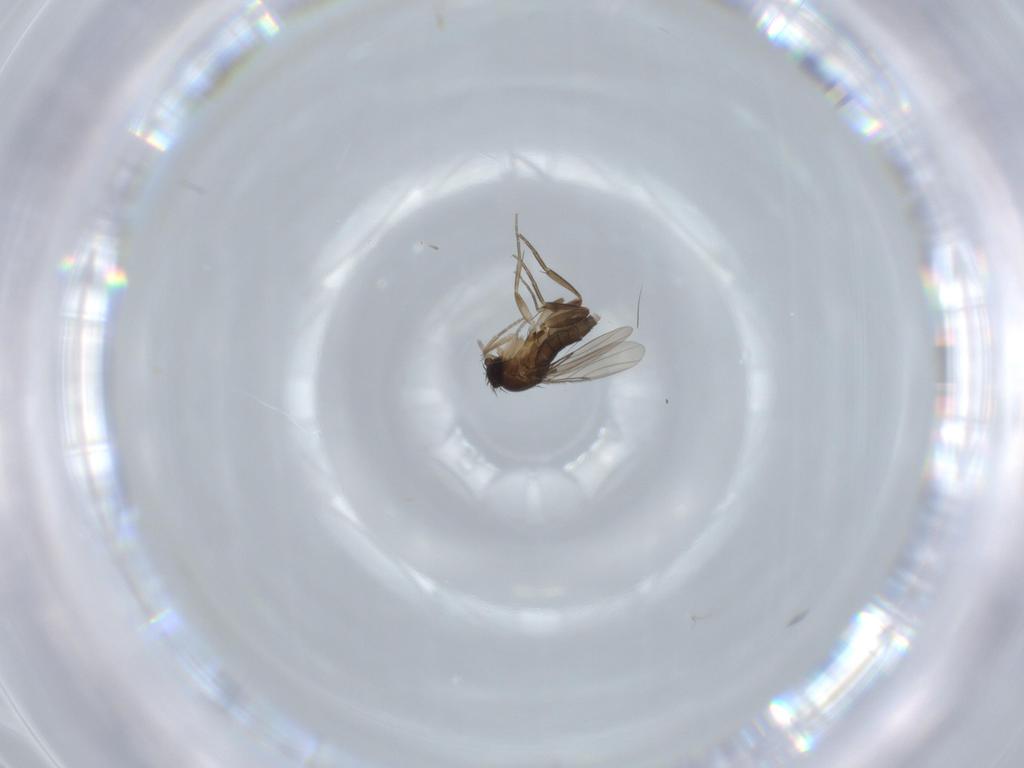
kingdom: Animalia
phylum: Arthropoda
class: Insecta
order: Diptera
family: Phoridae
